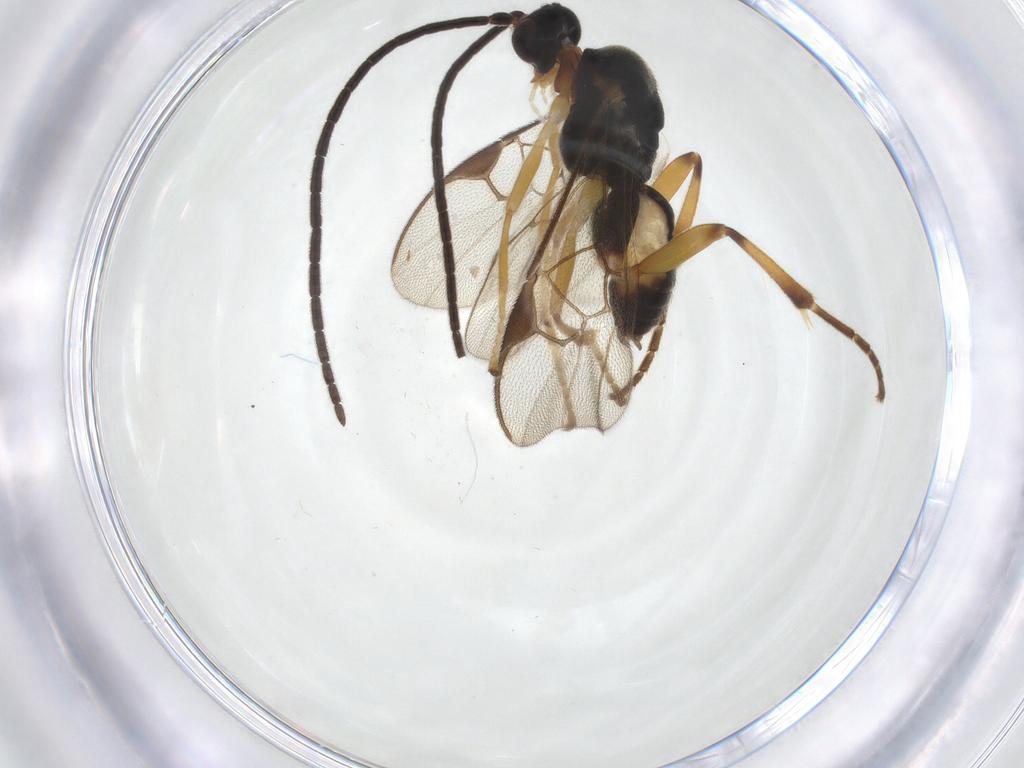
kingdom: Animalia
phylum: Arthropoda
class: Insecta
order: Hymenoptera
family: Braconidae
